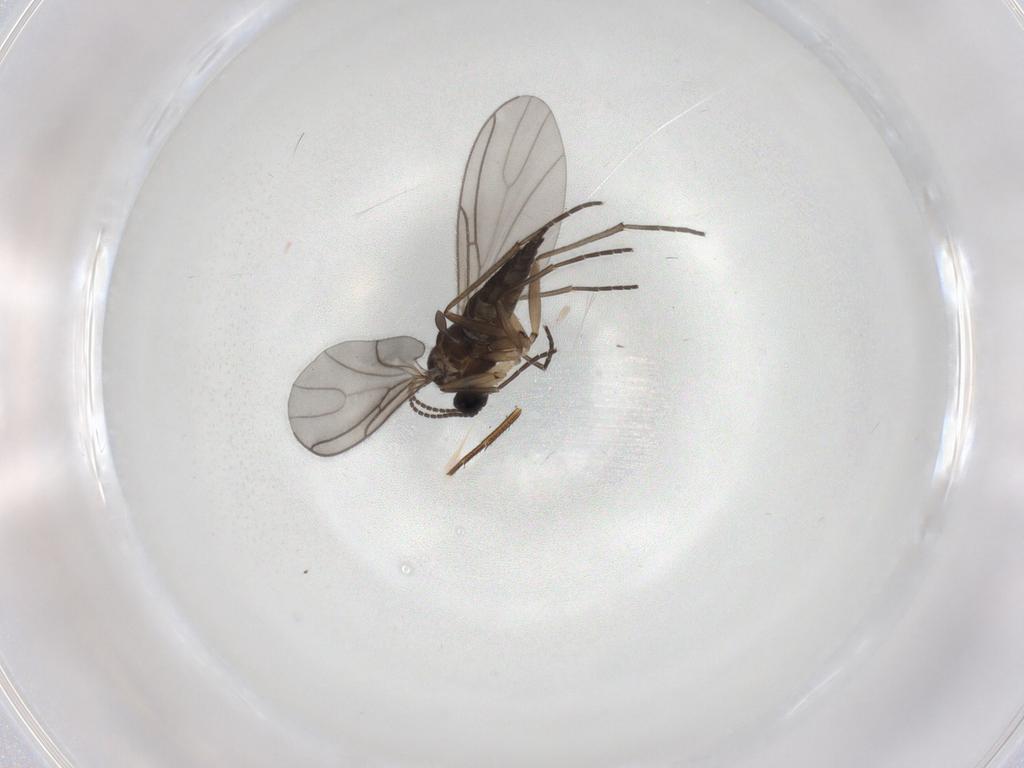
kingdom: Animalia
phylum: Arthropoda
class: Insecta
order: Diptera
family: Sciaridae
